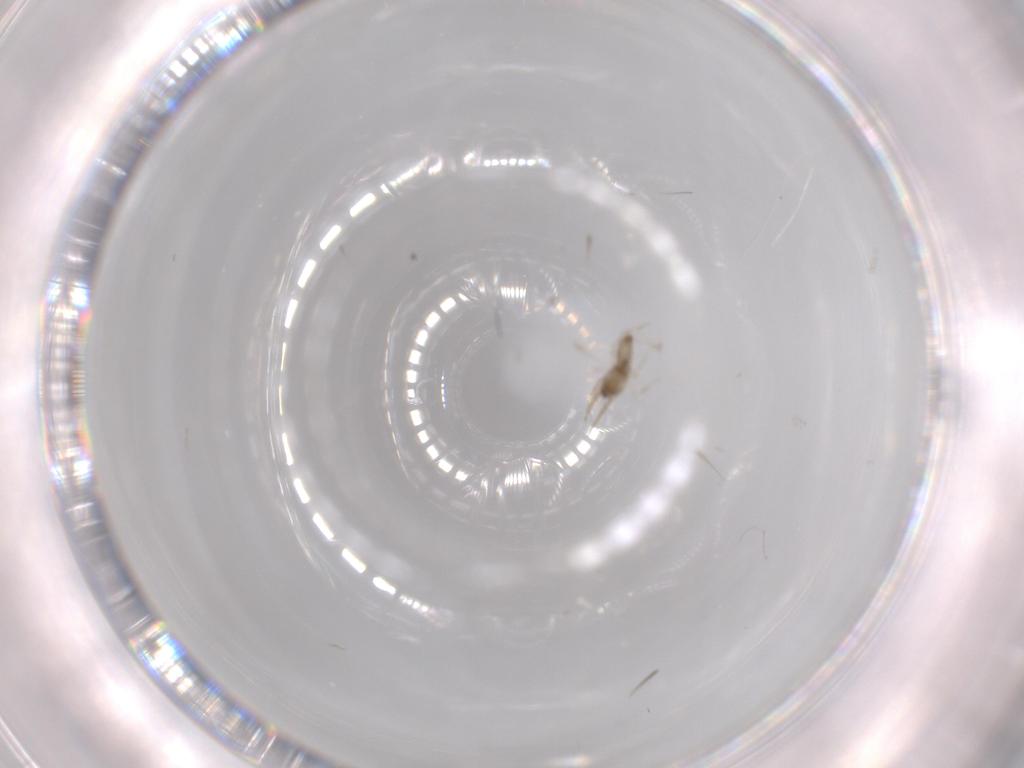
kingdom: Animalia
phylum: Arthropoda
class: Insecta
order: Diptera
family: Cecidomyiidae
